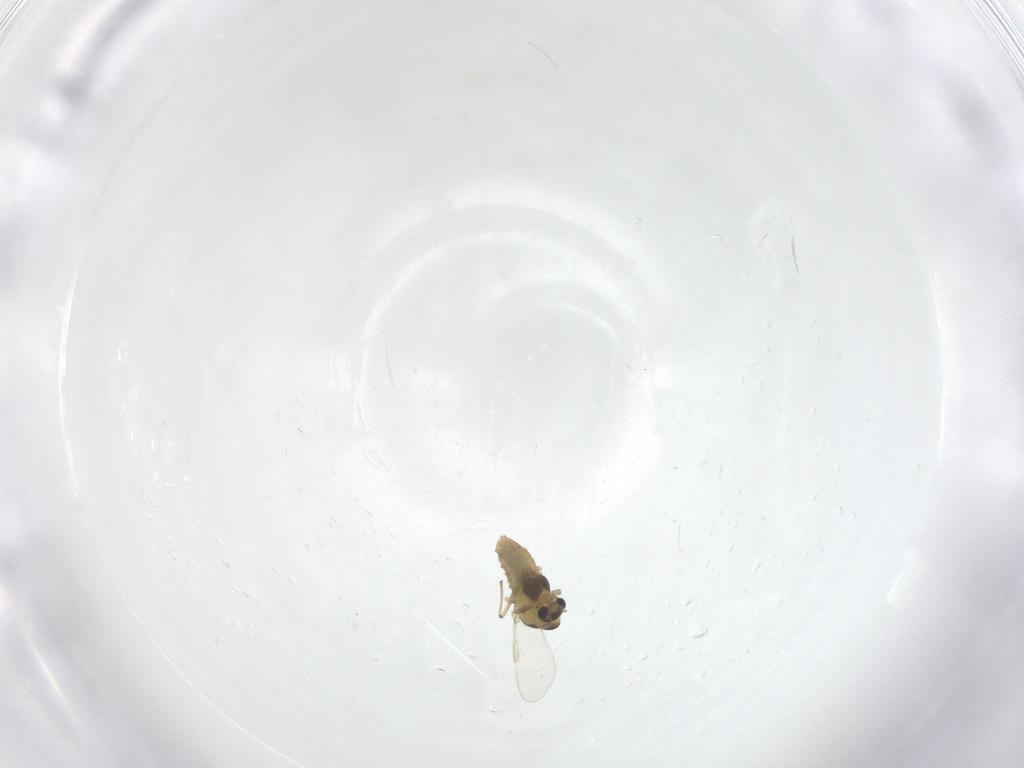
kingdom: Animalia
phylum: Arthropoda
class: Insecta
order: Diptera
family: Chironomidae
